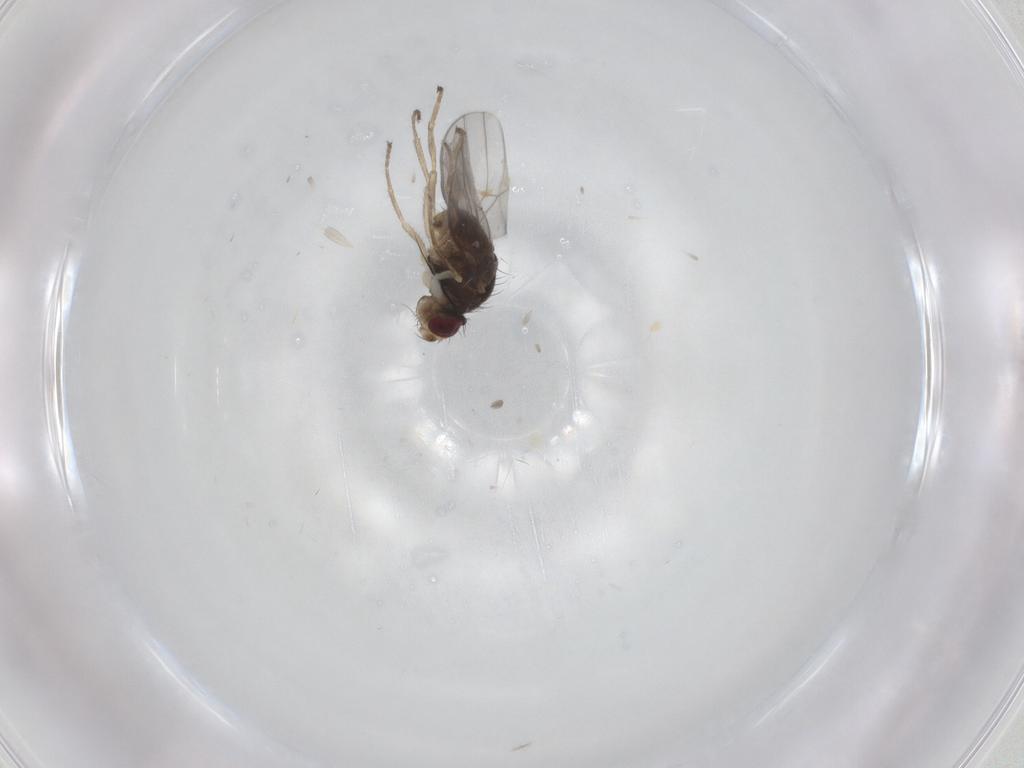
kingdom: Animalia
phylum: Arthropoda
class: Insecta
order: Diptera
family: Chloropidae
